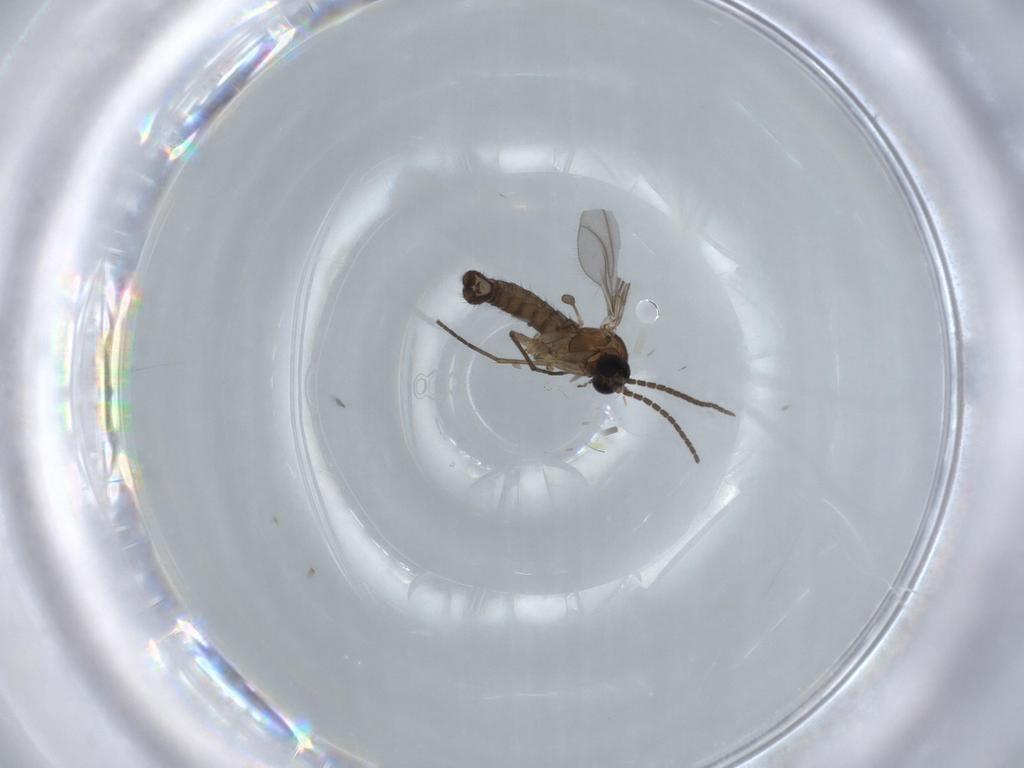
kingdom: Animalia
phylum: Arthropoda
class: Insecta
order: Diptera
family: Sciaridae
